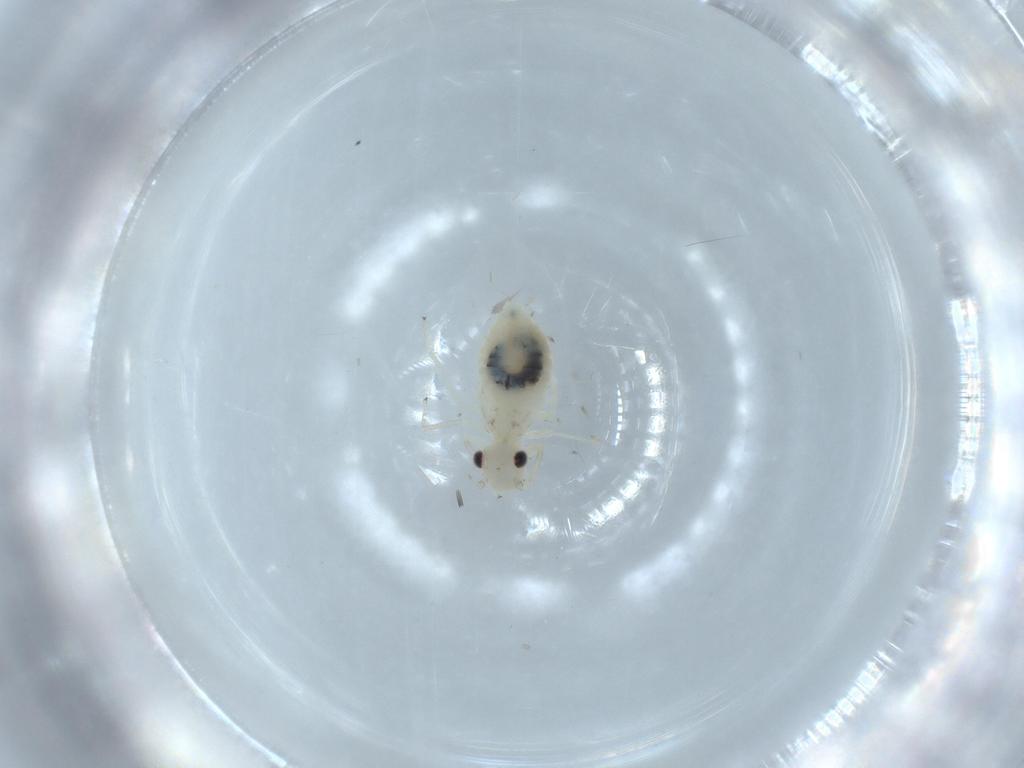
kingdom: Animalia
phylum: Arthropoda
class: Insecta
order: Psocodea
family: Caeciliusidae
